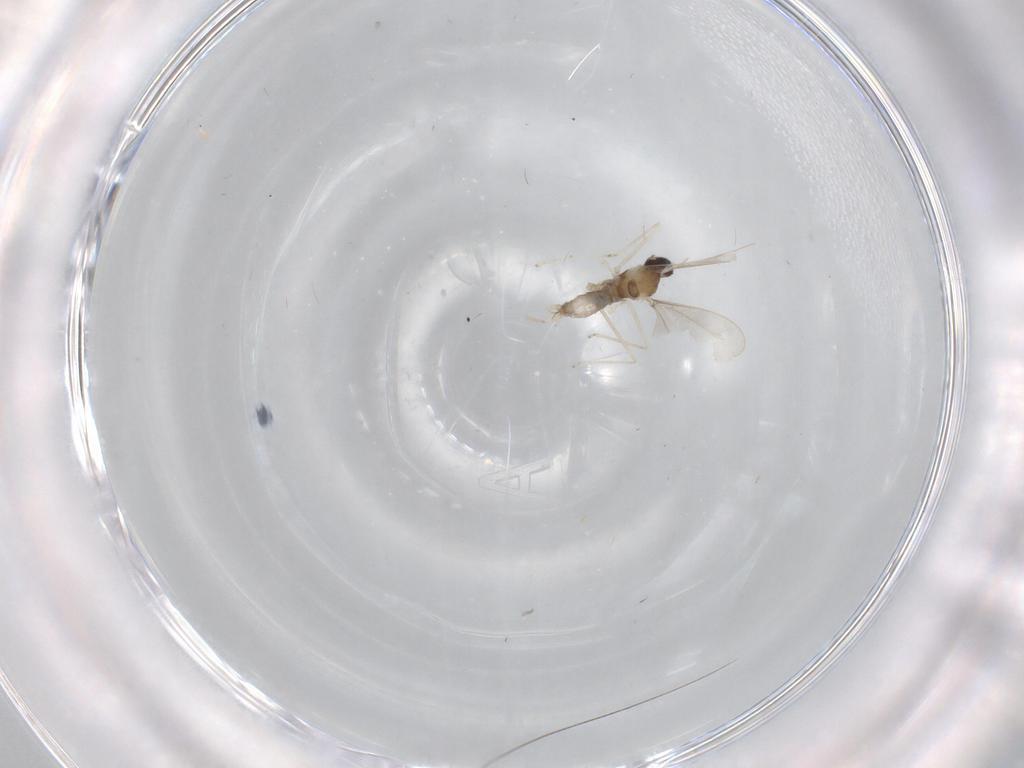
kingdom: Animalia
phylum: Arthropoda
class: Insecta
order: Diptera
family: Cecidomyiidae
